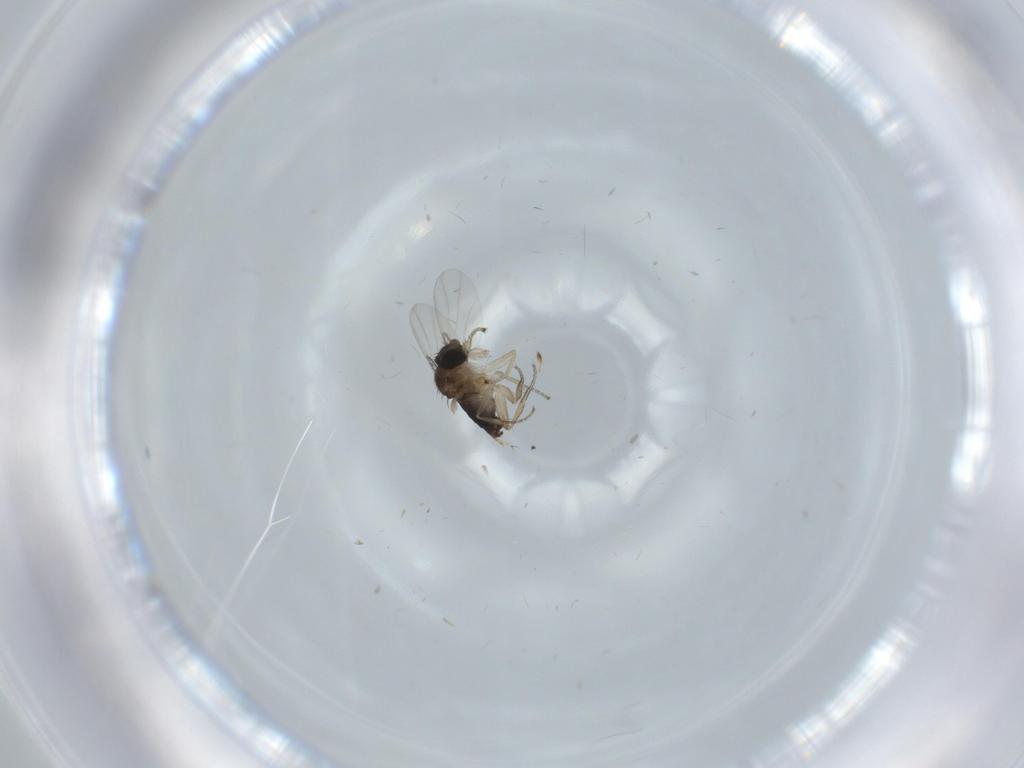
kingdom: Animalia
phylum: Arthropoda
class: Insecta
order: Diptera
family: Phoridae
